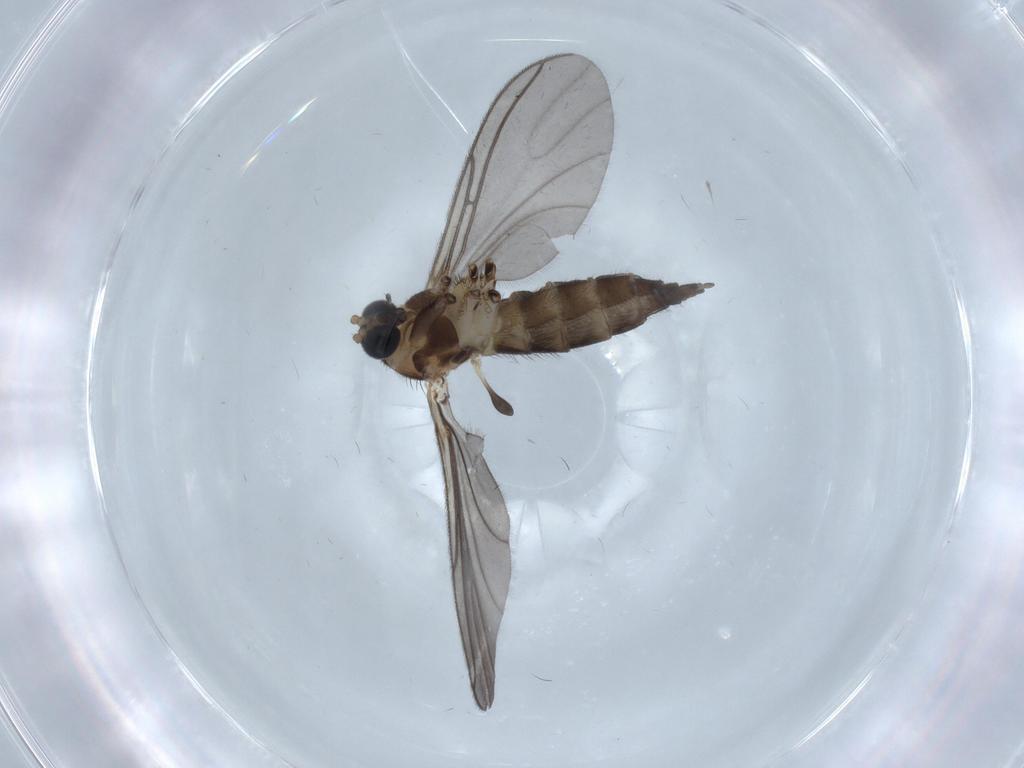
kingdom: Animalia
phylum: Arthropoda
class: Insecta
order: Diptera
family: Sciaridae
